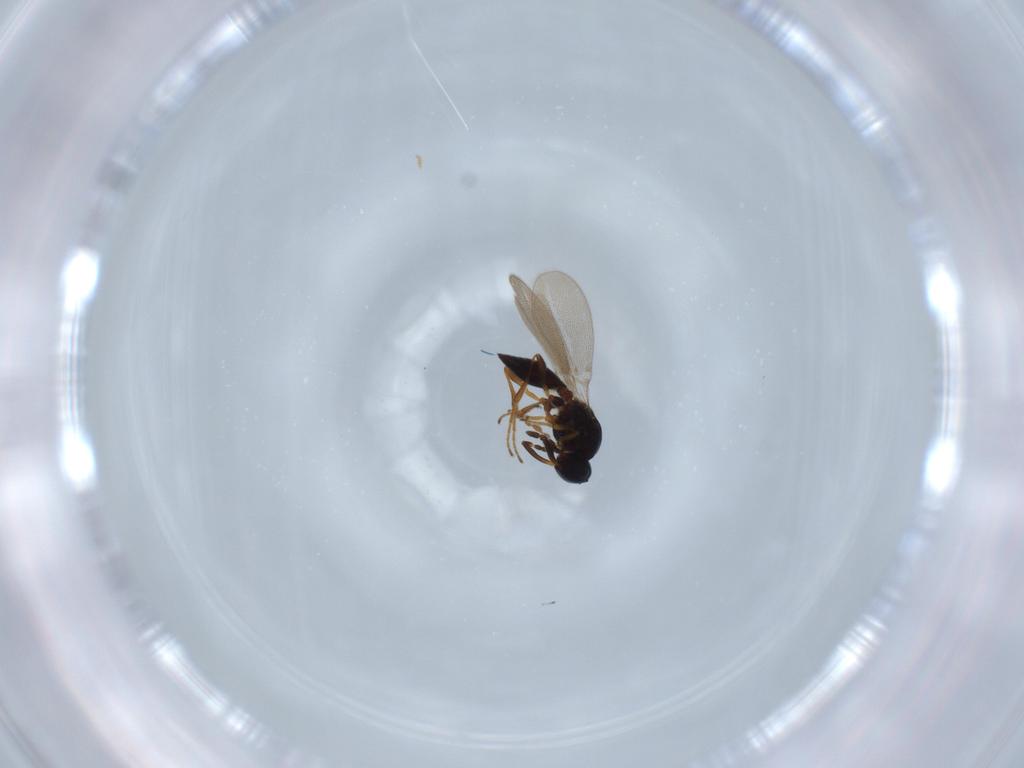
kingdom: Animalia
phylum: Arthropoda
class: Insecta
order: Hymenoptera
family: Platygastridae
